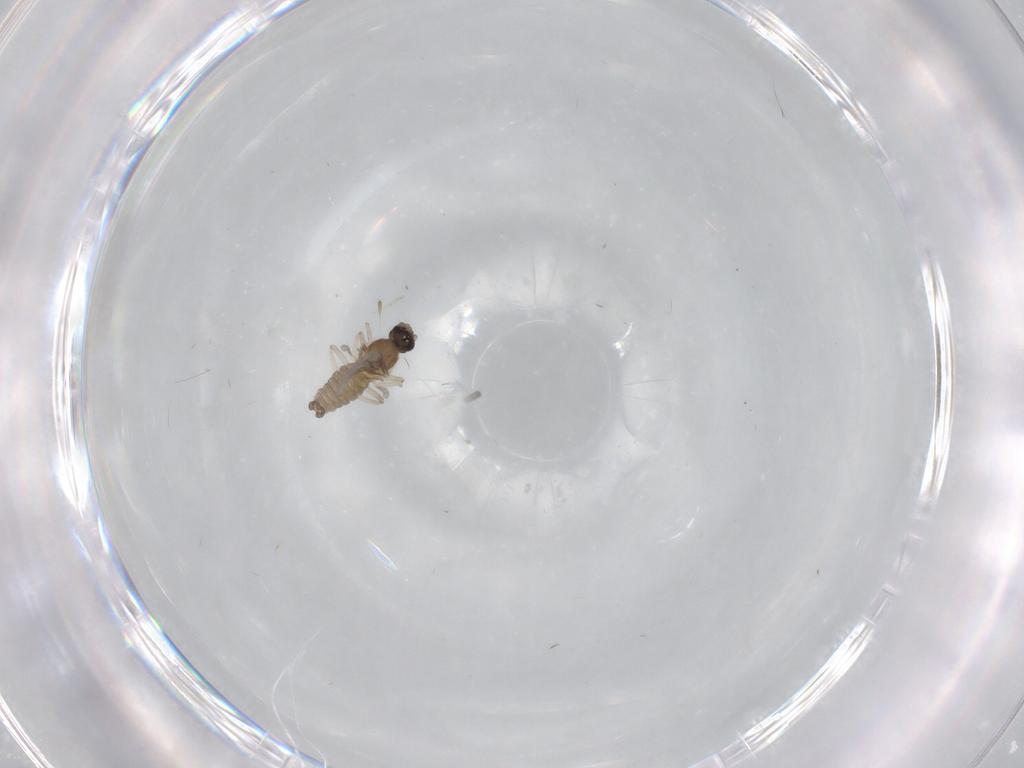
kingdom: Animalia
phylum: Arthropoda
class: Insecta
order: Diptera
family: Cecidomyiidae
